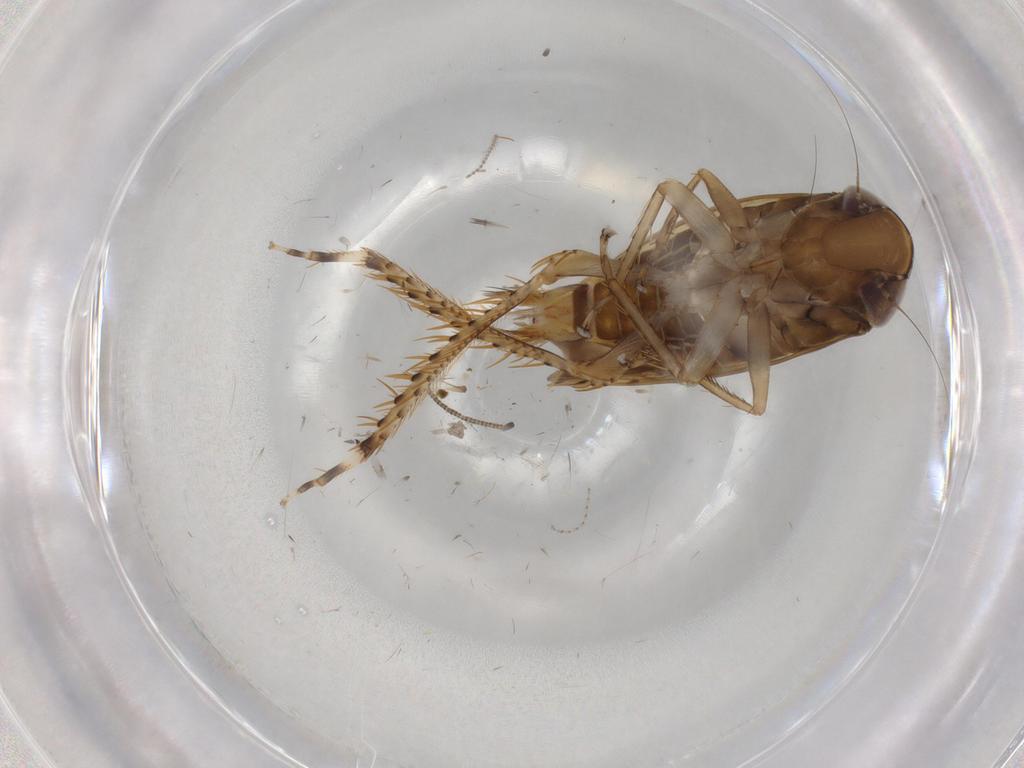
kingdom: Animalia
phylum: Arthropoda
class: Insecta
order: Hemiptera
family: Cicadellidae
